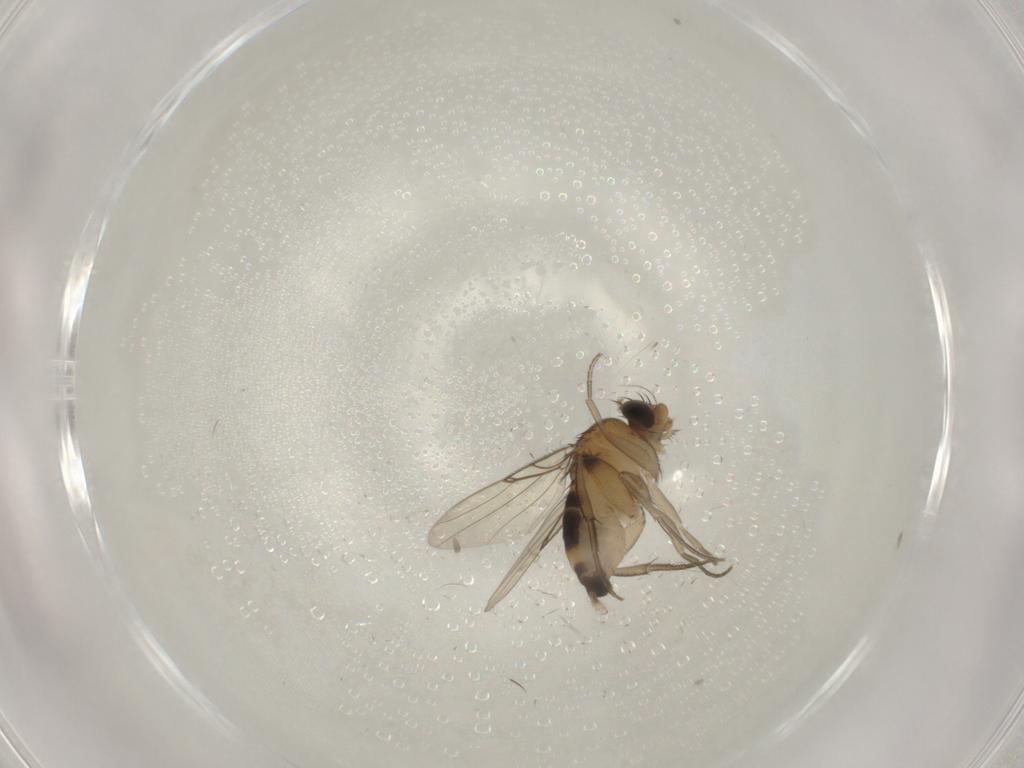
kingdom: Animalia
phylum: Arthropoda
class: Insecta
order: Diptera
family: Phoridae
